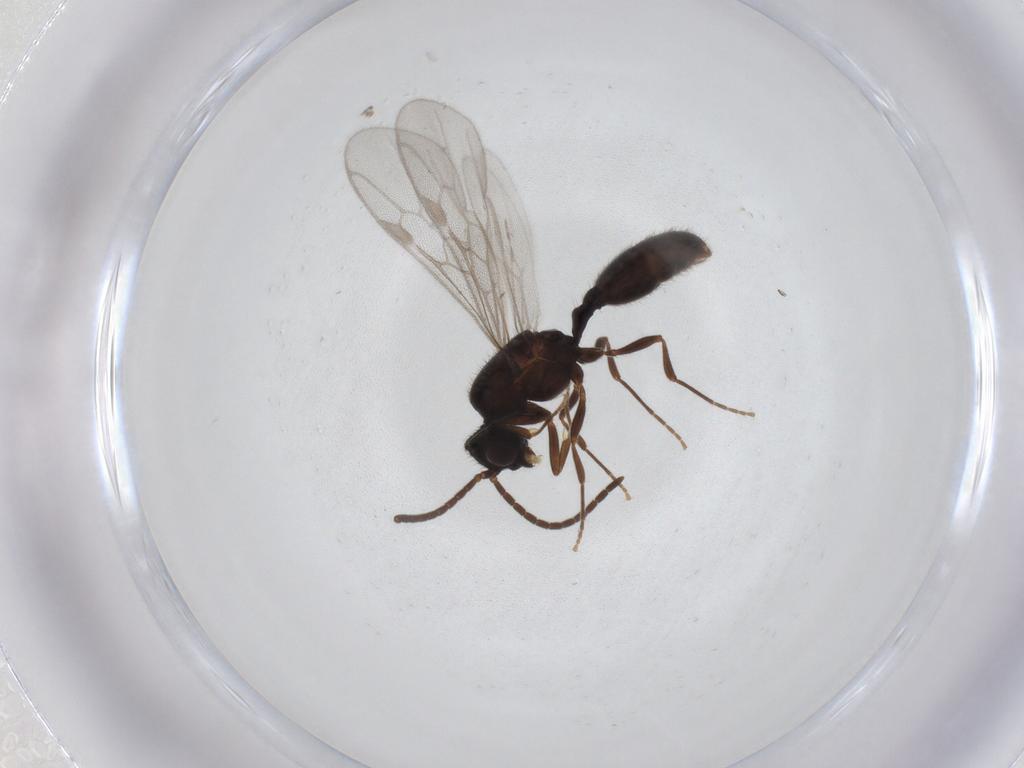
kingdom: Animalia
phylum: Arthropoda
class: Insecta
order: Hymenoptera
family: Formicidae
